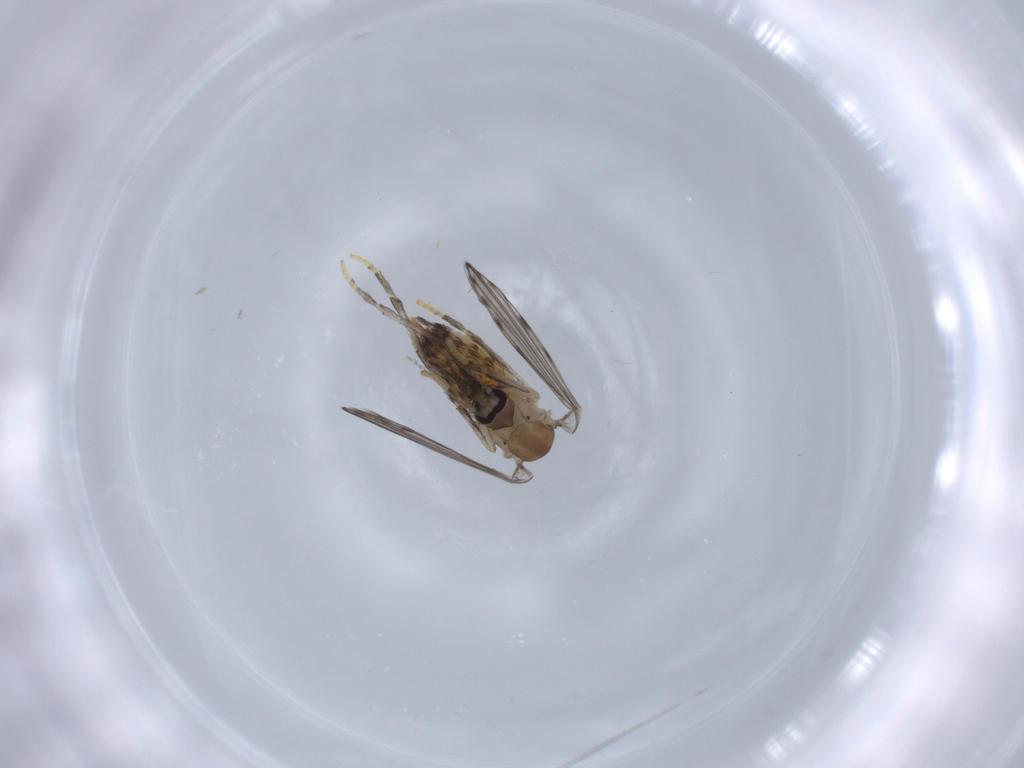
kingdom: Animalia
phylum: Arthropoda
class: Insecta
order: Diptera
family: Psychodidae
